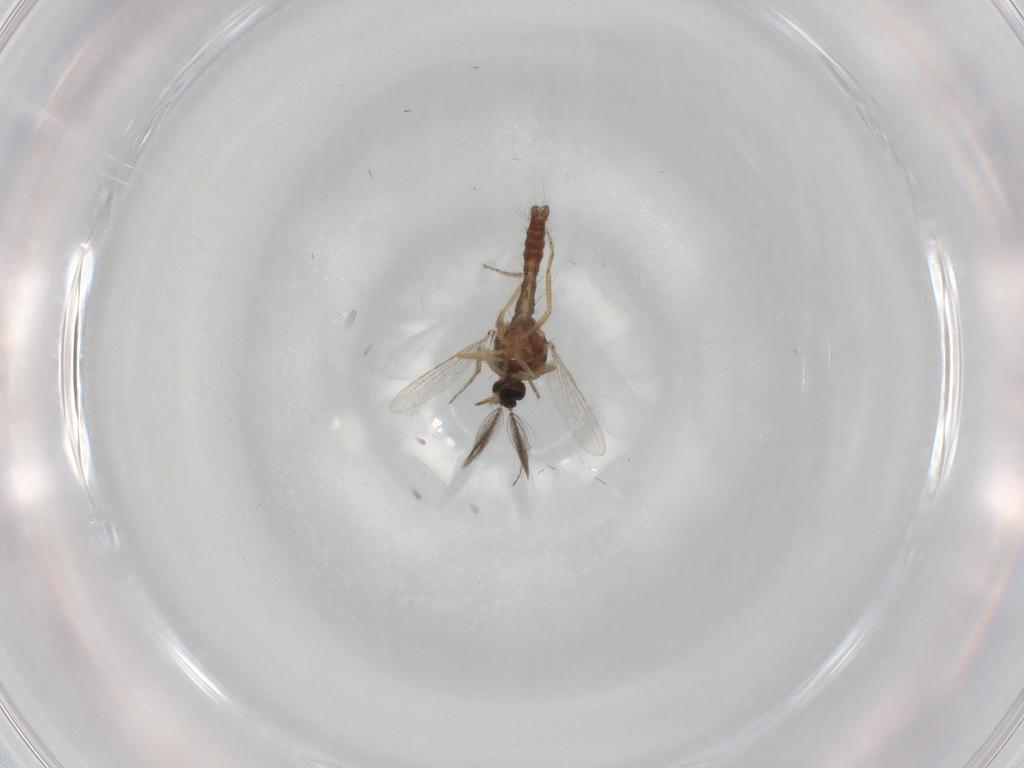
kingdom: Animalia
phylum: Arthropoda
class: Insecta
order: Diptera
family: Ceratopogonidae
